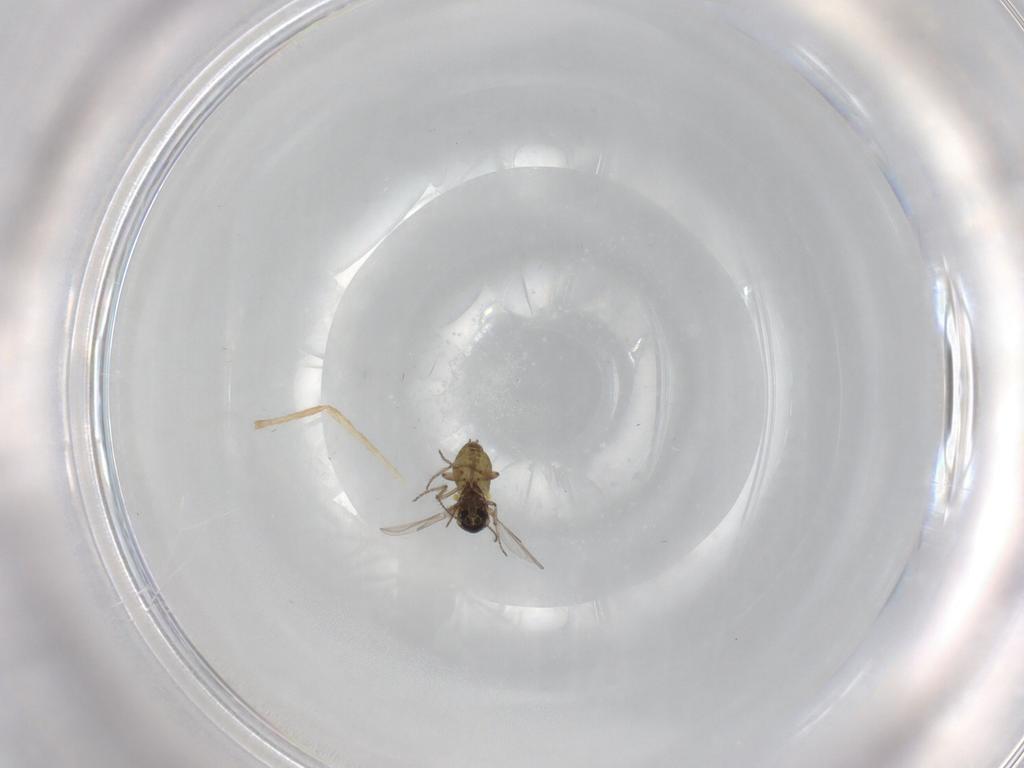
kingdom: Animalia
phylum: Arthropoda
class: Insecta
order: Diptera
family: Ceratopogonidae
